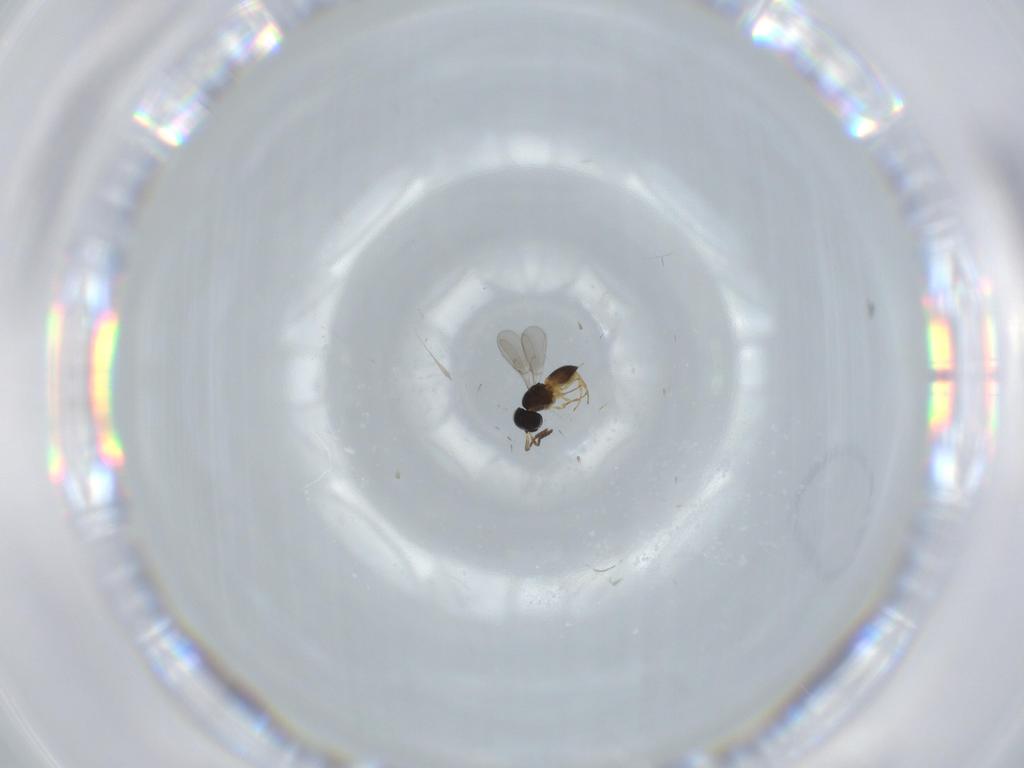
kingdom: Animalia
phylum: Arthropoda
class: Insecta
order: Hymenoptera
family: Scelionidae
